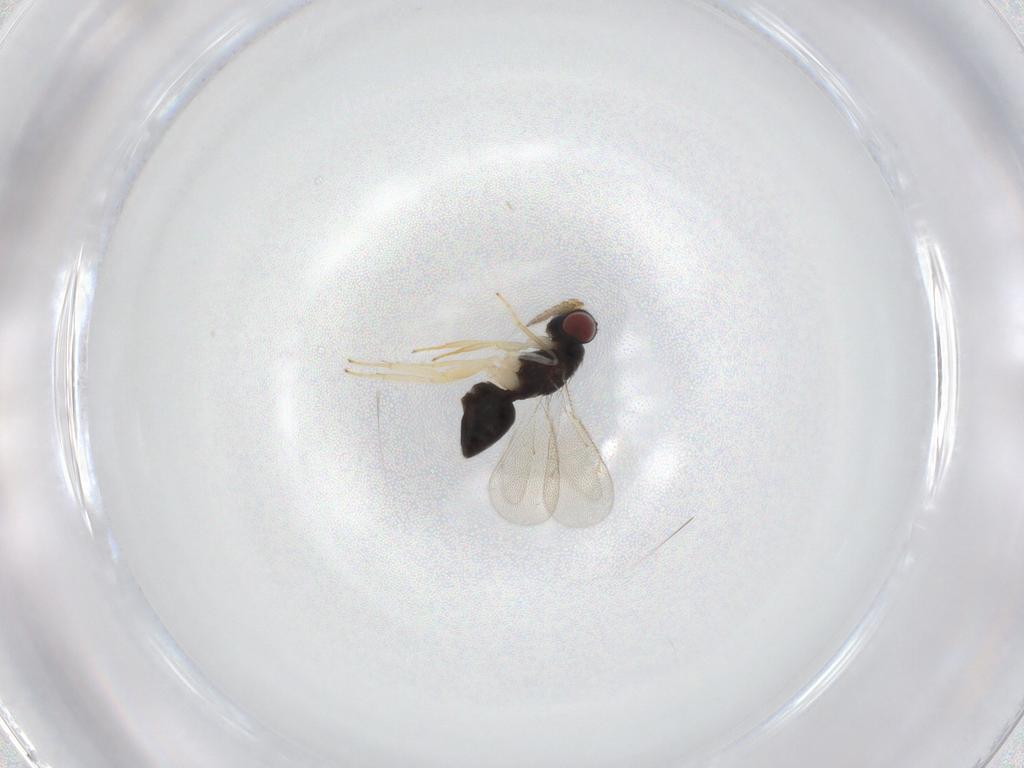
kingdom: Animalia
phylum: Arthropoda
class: Insecta
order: Hymenoptera
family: Eulophidae
